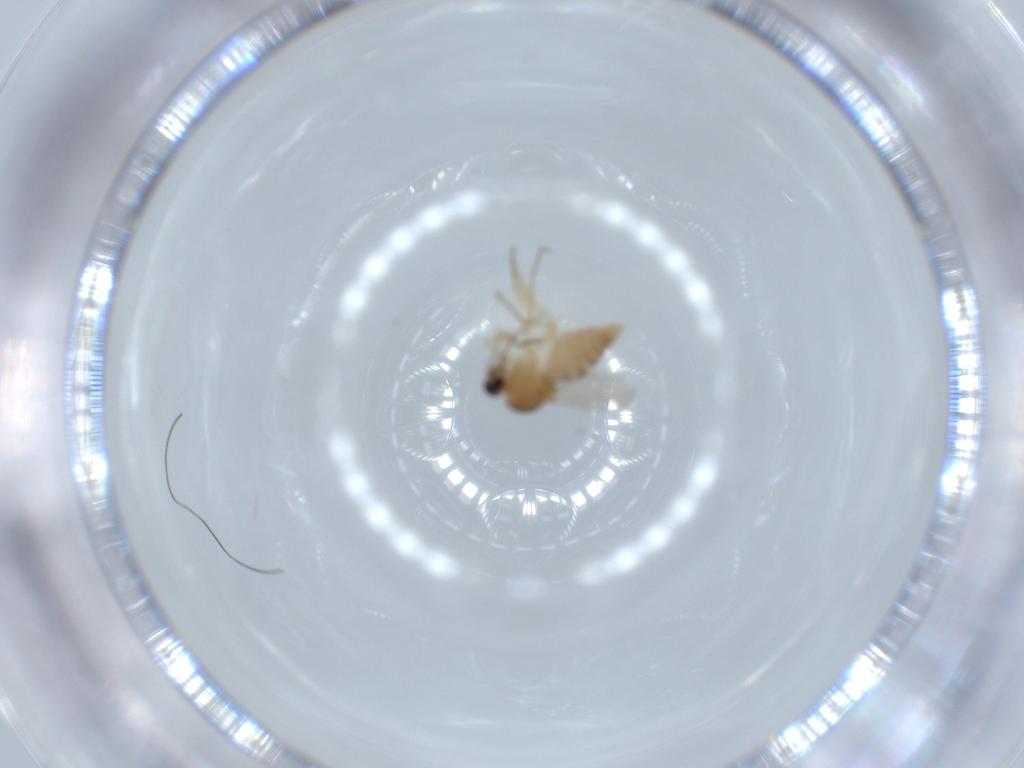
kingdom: Animalia
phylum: Arthropoda
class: Insecta
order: Diptera
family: Ceratopogonidae
